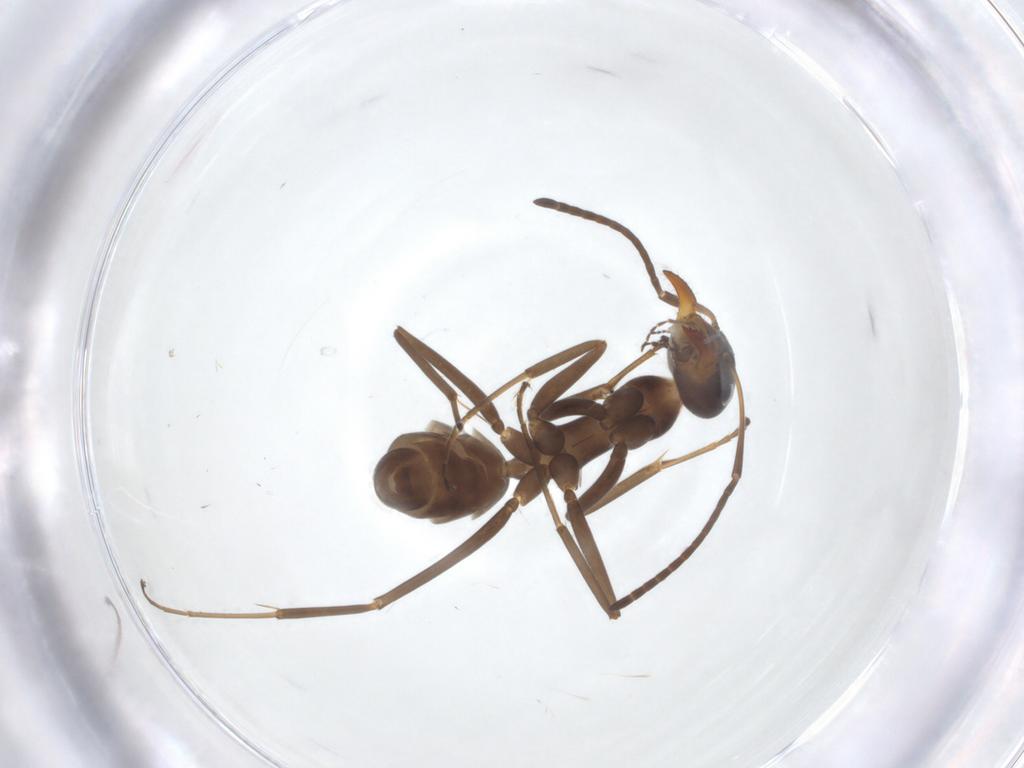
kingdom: Animalia
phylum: Arthropoda
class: Insecta
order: Hymenoptera
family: Formicidae
